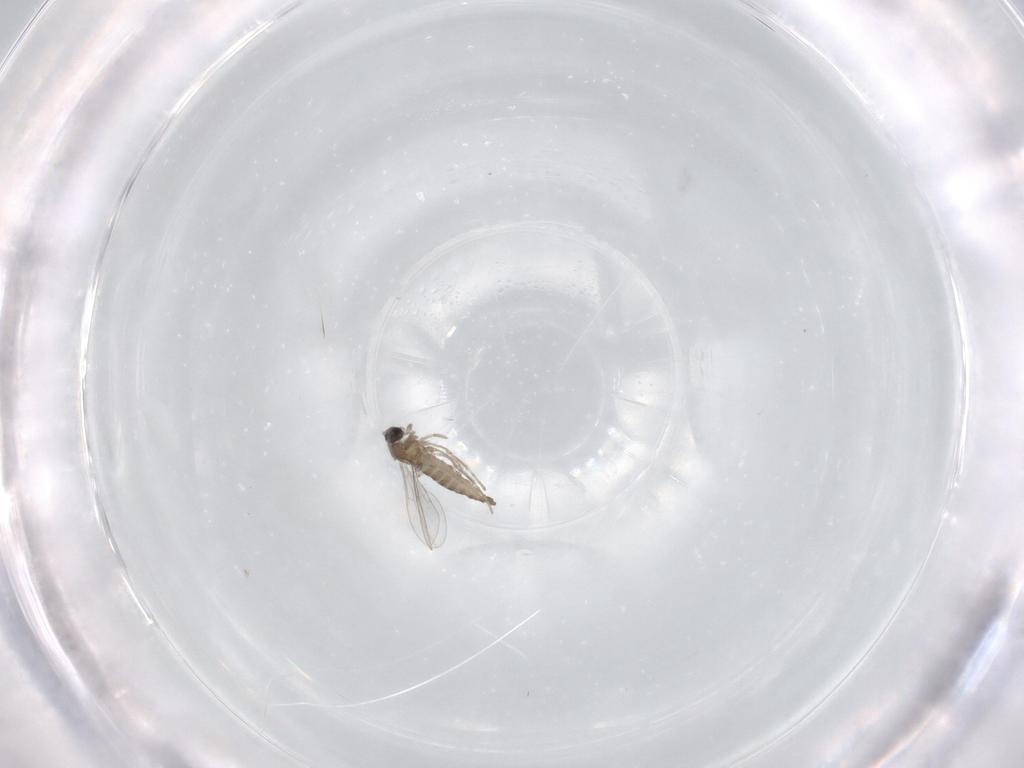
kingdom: Animalia
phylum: Arthropoda
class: Insecta
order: Diptera
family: Cecidomyiidae
